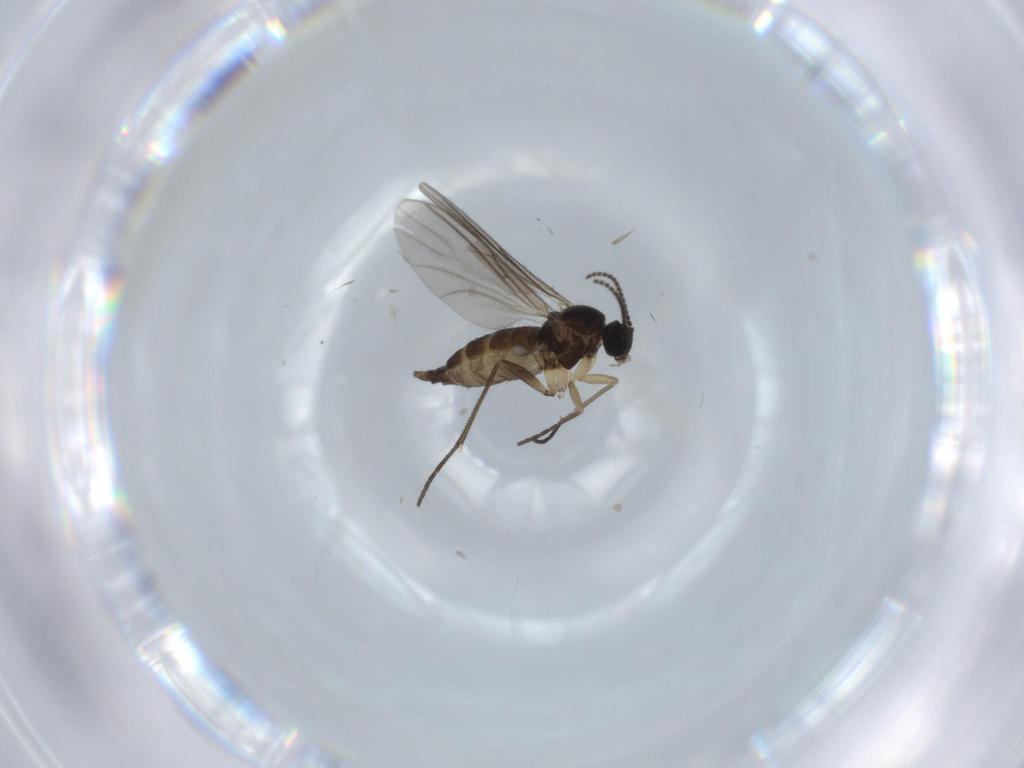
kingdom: Animalia
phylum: Arthropoda
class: Insecta
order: Diptera
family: Sciaridae
